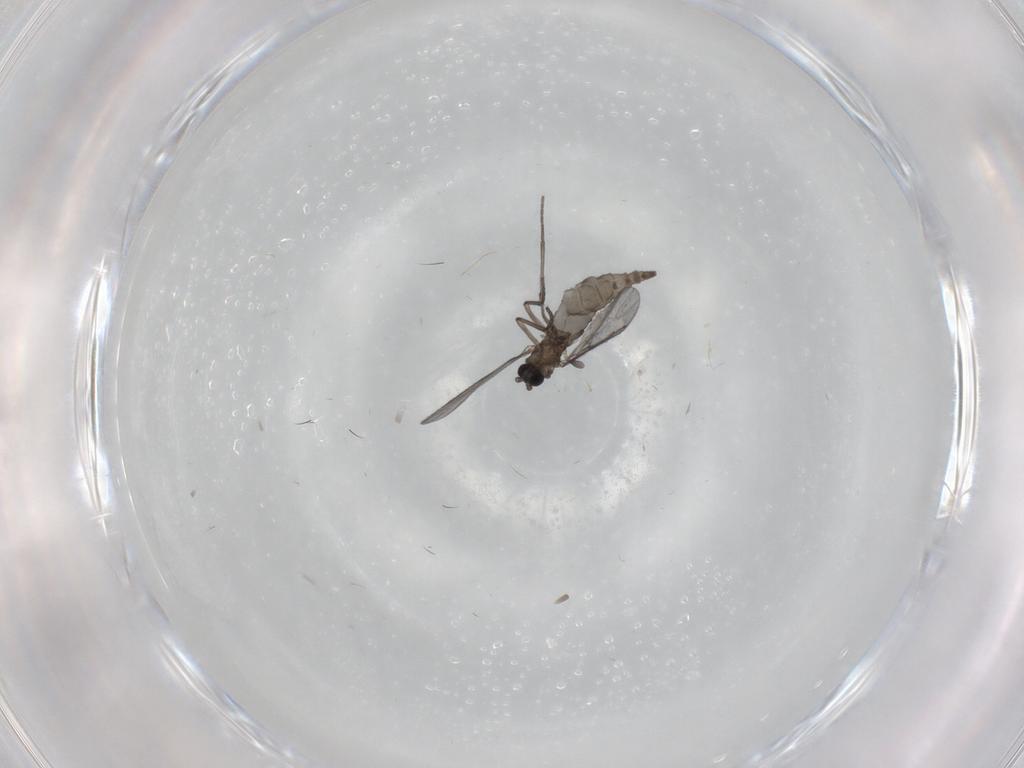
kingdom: Animalia
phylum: Arthropoda
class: Insecta
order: Diptera
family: Sciaridae
